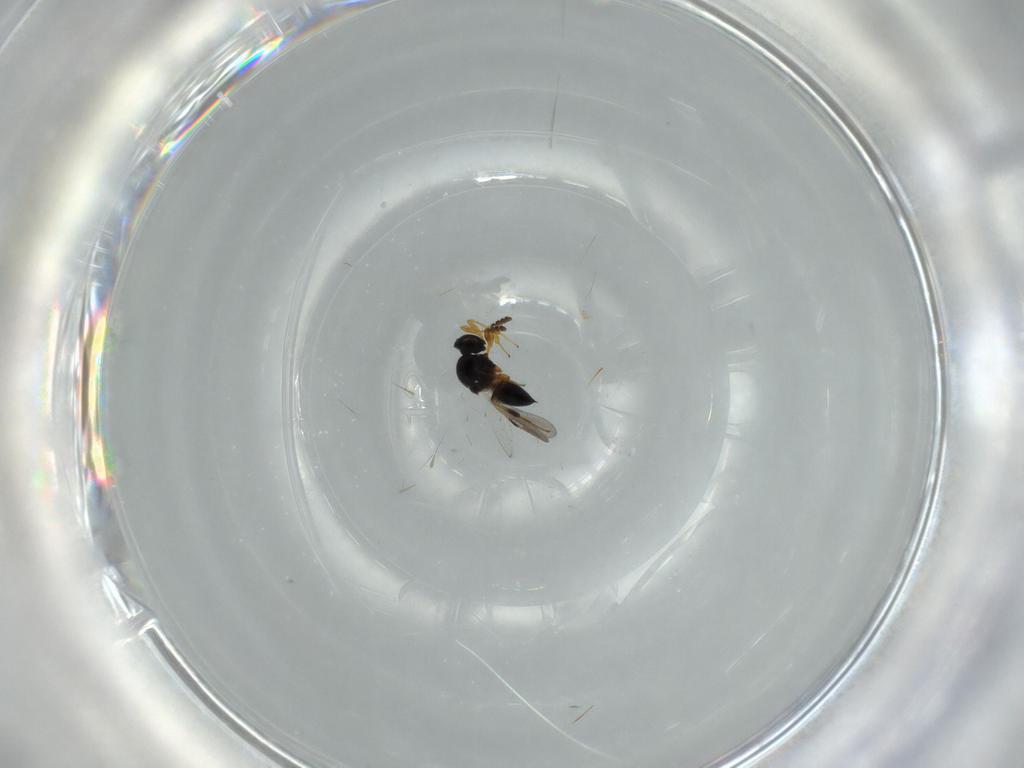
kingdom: Animalia
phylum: Arthropoda
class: Insecta
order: Hymenoptera
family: Platygastridae
